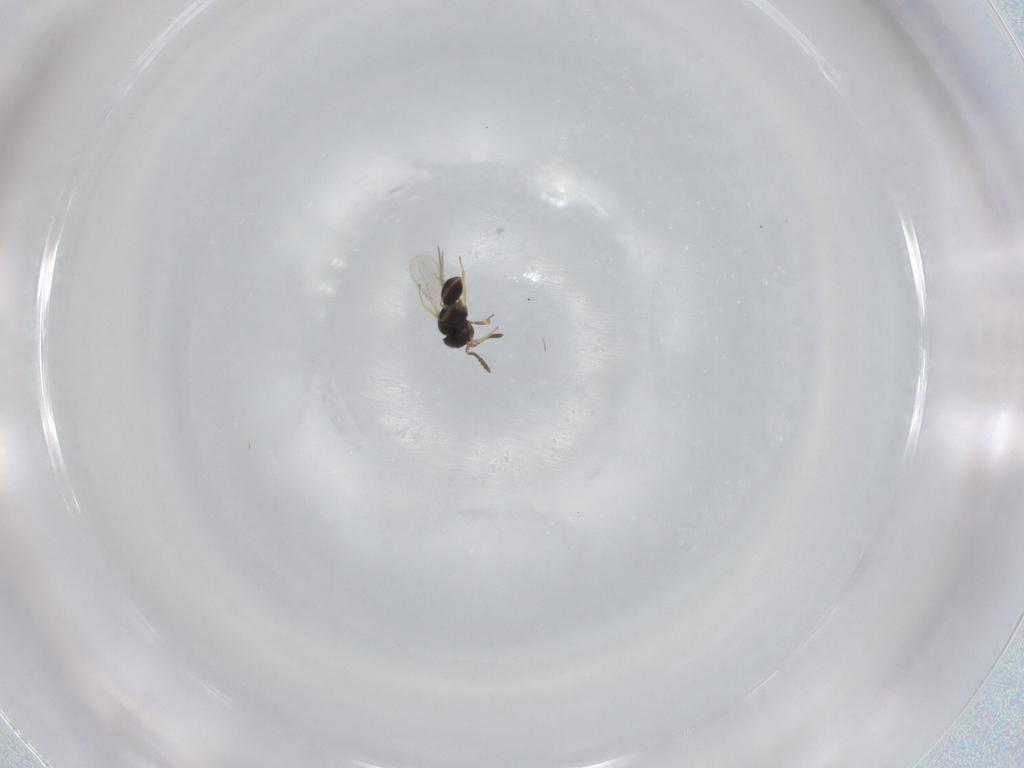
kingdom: Animalia
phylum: Arthropoda
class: Insecta
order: Hymenoptera
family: Scelionidae
